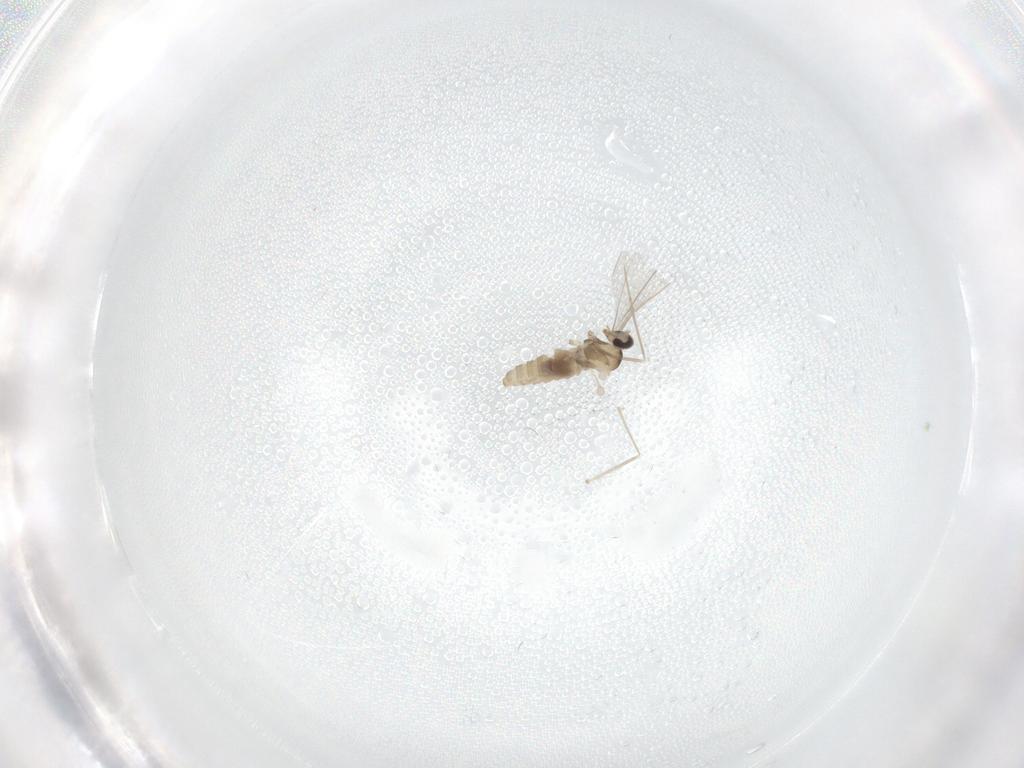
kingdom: Animalia
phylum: Arthropoda
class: Insecta
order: Diptera
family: Cecidomyiidae
